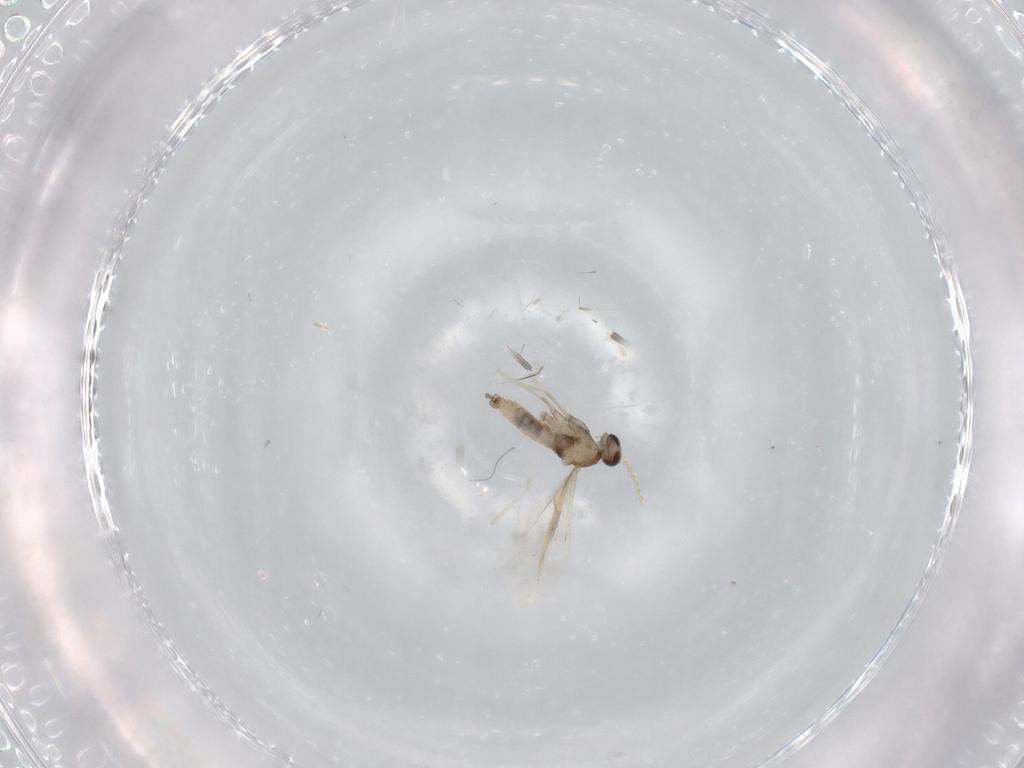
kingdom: Animalia
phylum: Arthropoda
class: Insecta
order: Diptera
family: Cecidomyiidae
